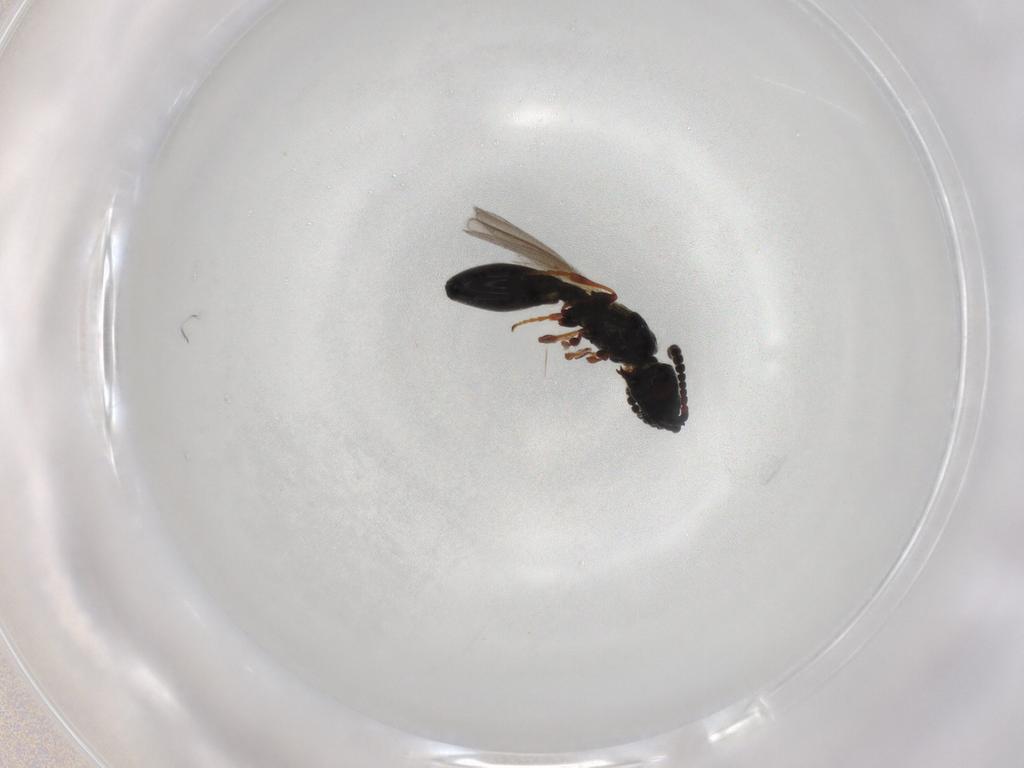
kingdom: Animalia
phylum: Arthropoda
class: Insecta
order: Hymenoptera
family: Diapriidae
